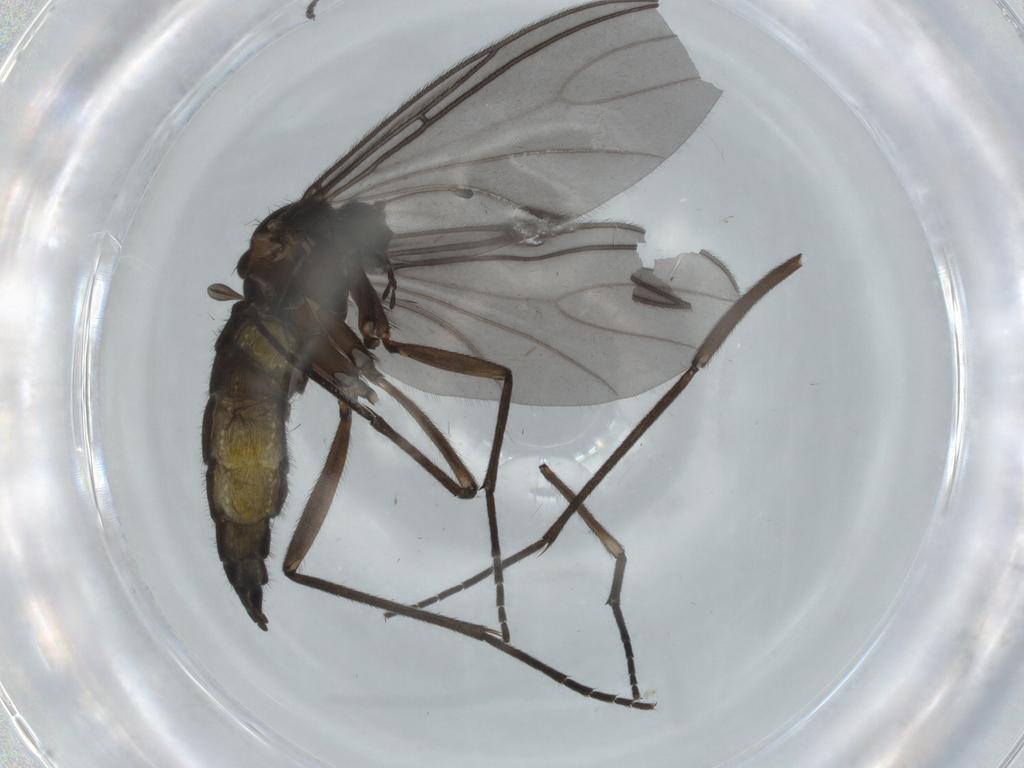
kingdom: Animalia
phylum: Arthropoda
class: Insecta
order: Diptera
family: Sciaridae
